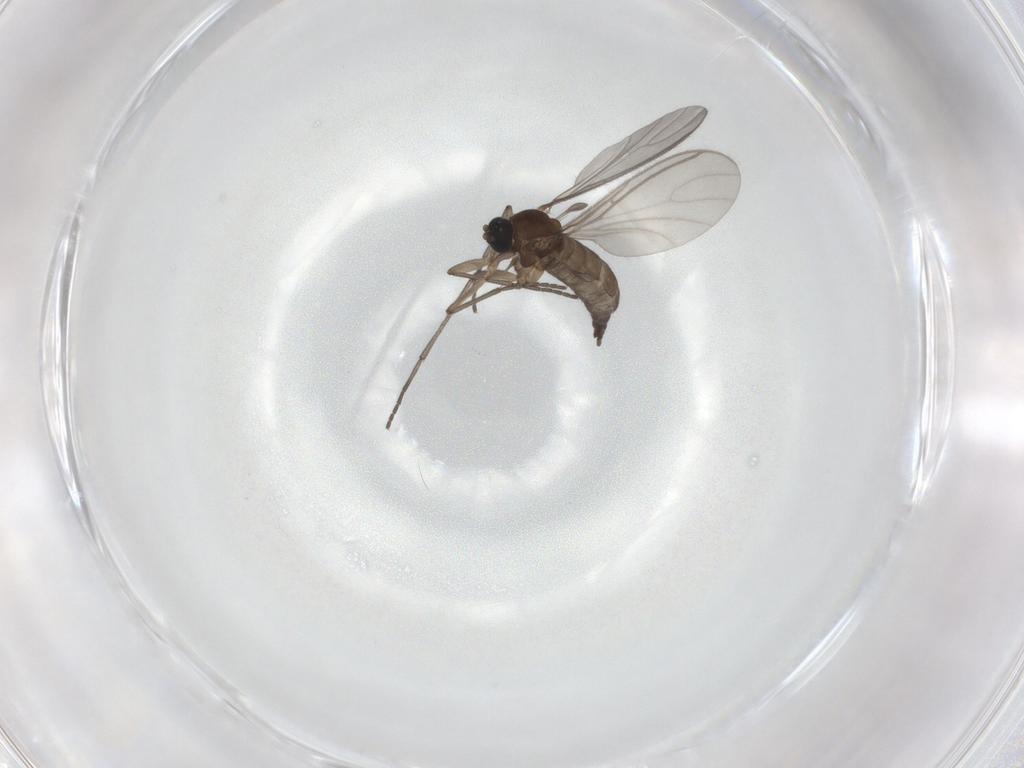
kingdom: Animalia
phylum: Arthropoda
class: Insecta
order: Diptera
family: Sciaridae
